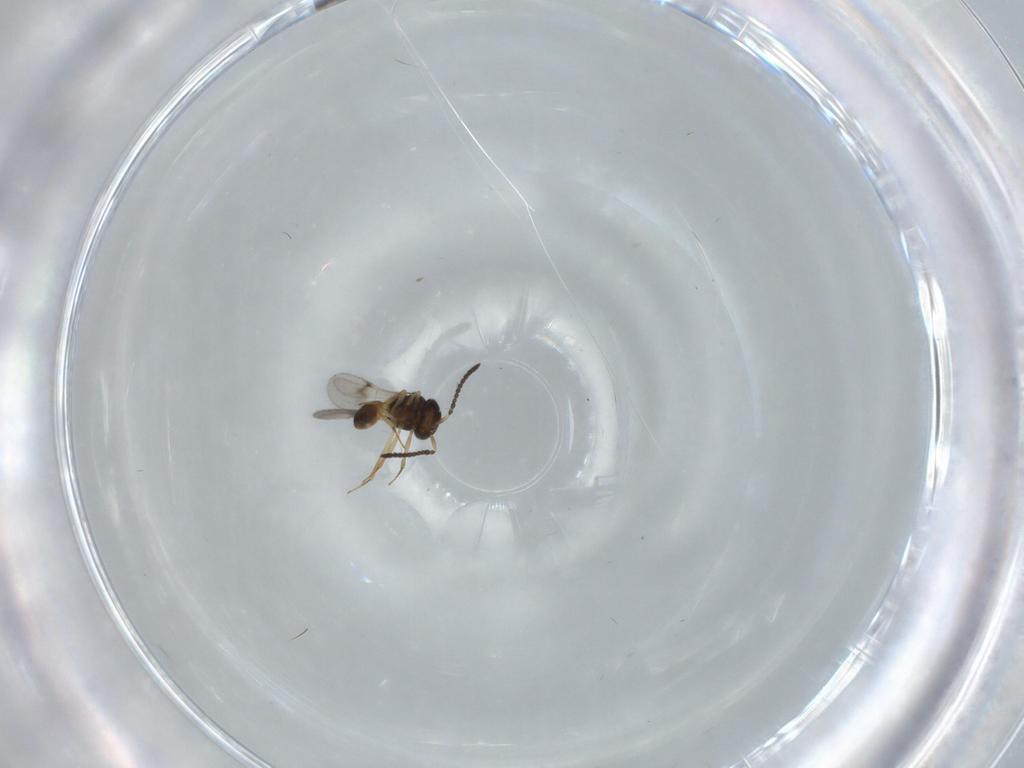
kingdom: Animalia
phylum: Arthropoda
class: Arachnida
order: Araneae
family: Pholcidae
